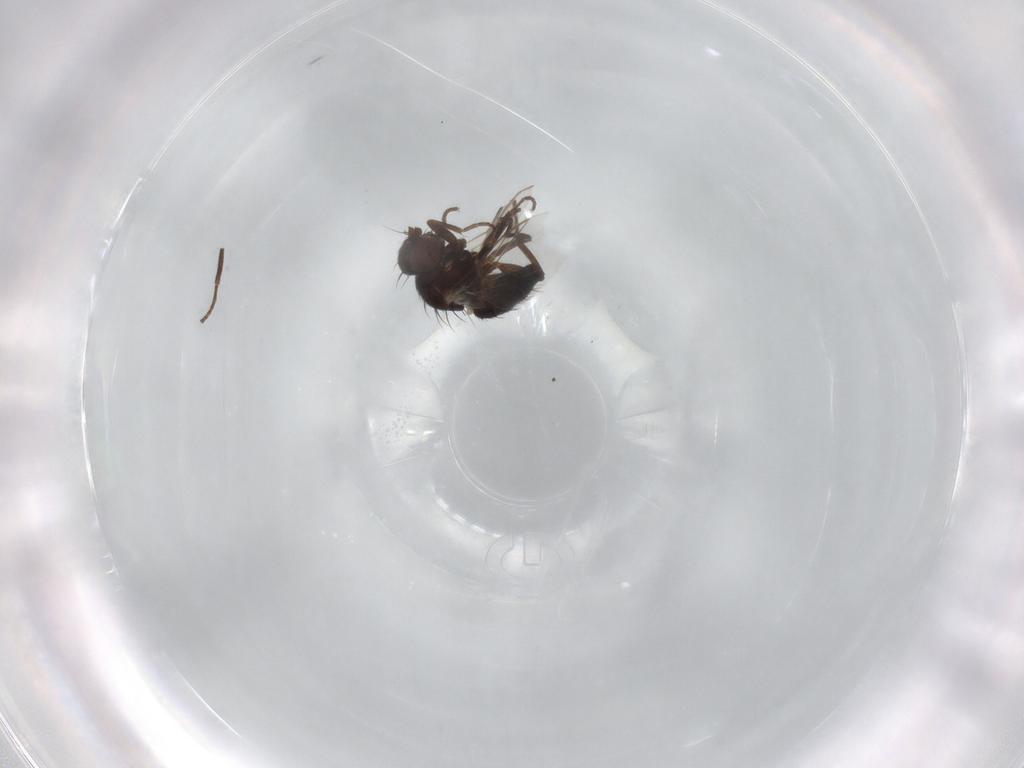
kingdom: Animalia
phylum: Arthropoda
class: Insecta
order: Diptera
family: Agromyzidae
